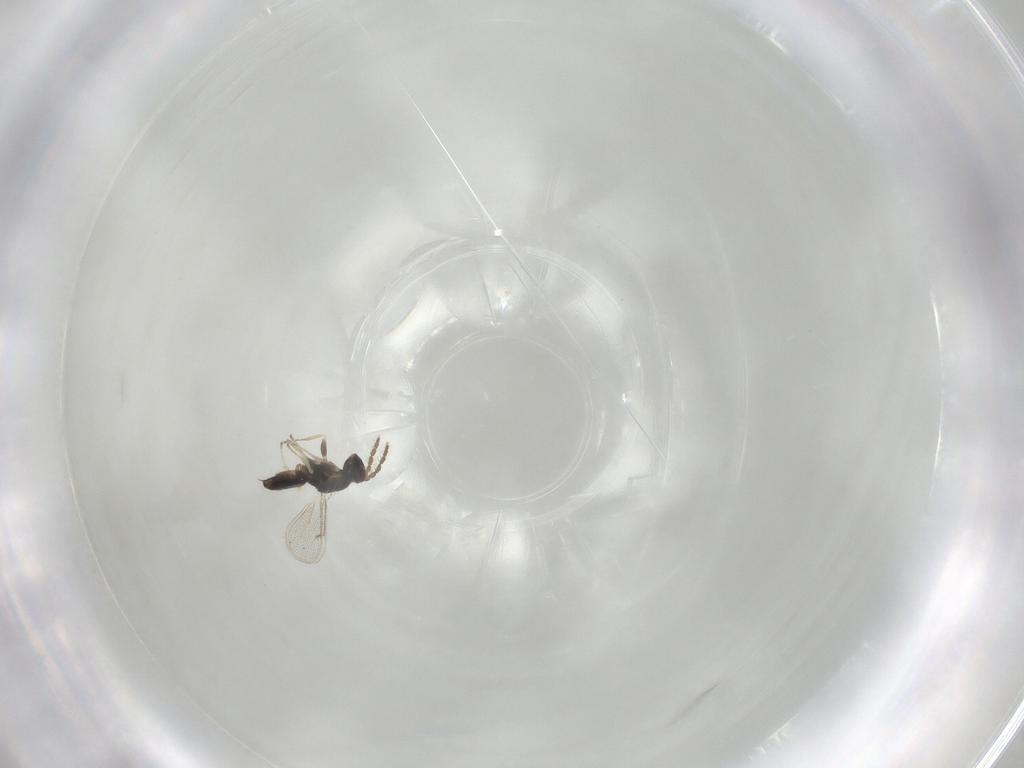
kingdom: Animalia
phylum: Arthropoda
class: Insecta
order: Hymenoptera
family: Eulophidae
